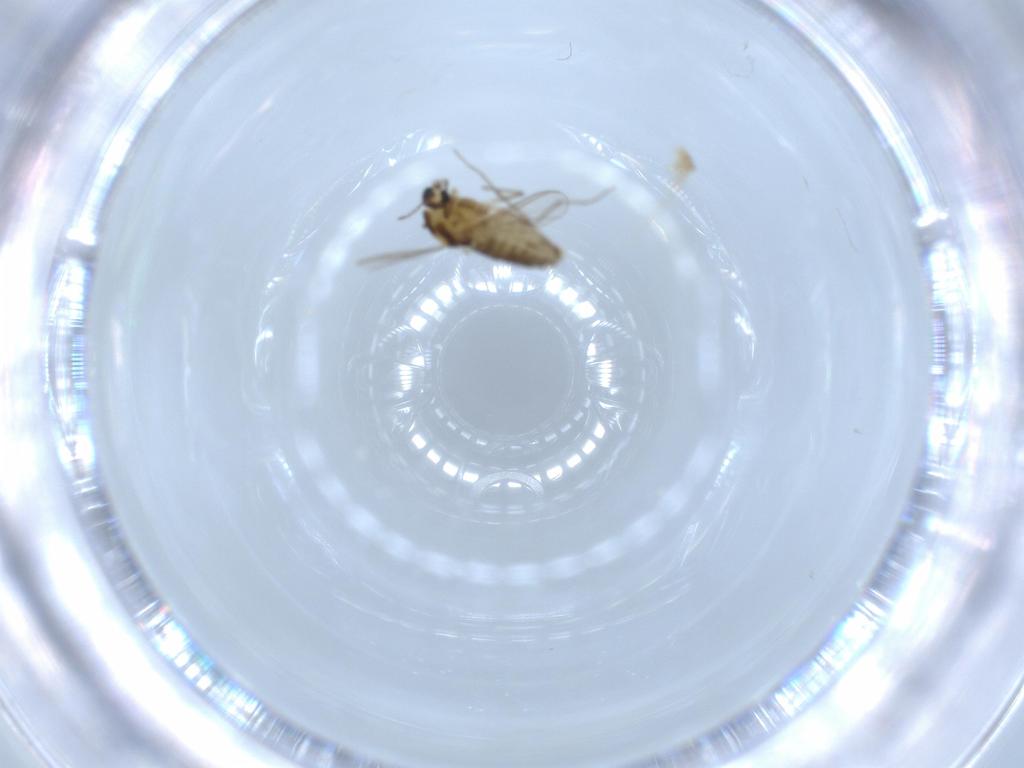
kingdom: Animalia
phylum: Arthropoda
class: Insecta
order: Diptera
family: Chironomidae
